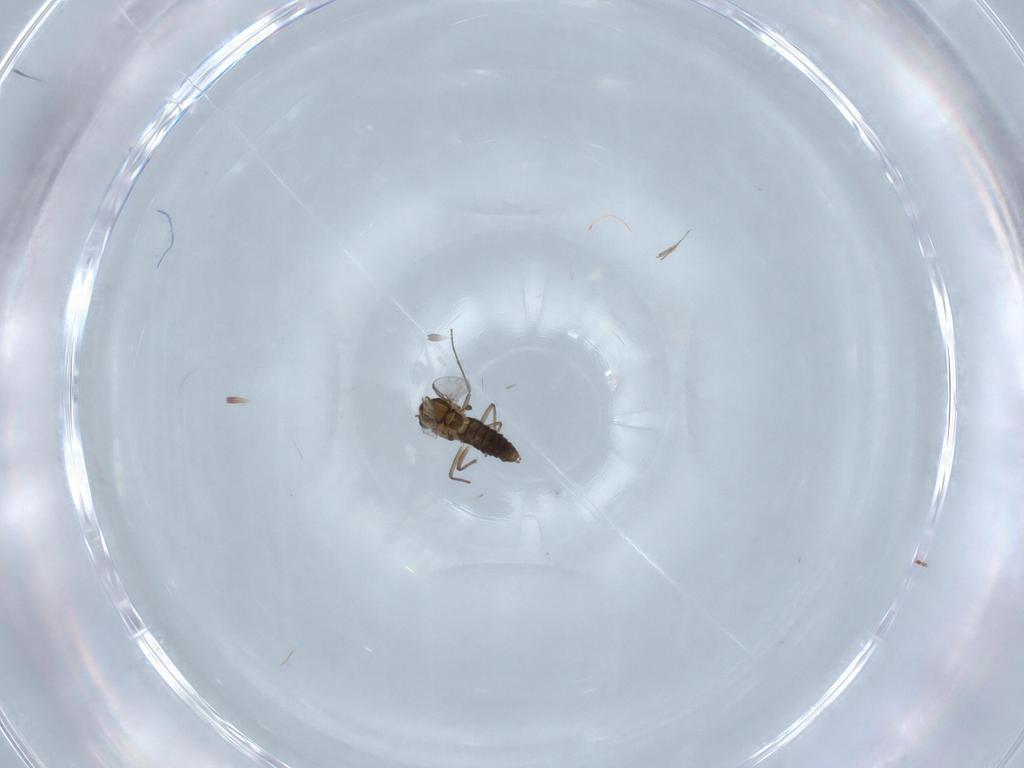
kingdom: Animalia
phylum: Arthropoda
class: Insecta
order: Diptera
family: Chironomidae
